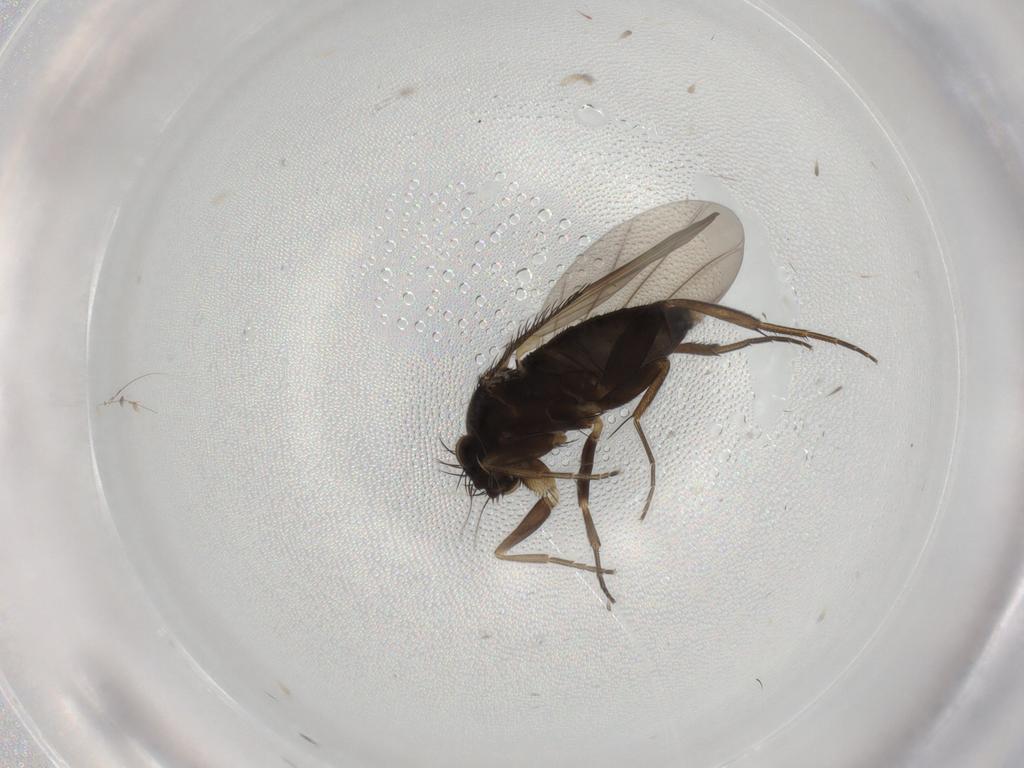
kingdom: Animalia
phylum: Arthropoda
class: Insecta
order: Diptera
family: Phoridae
